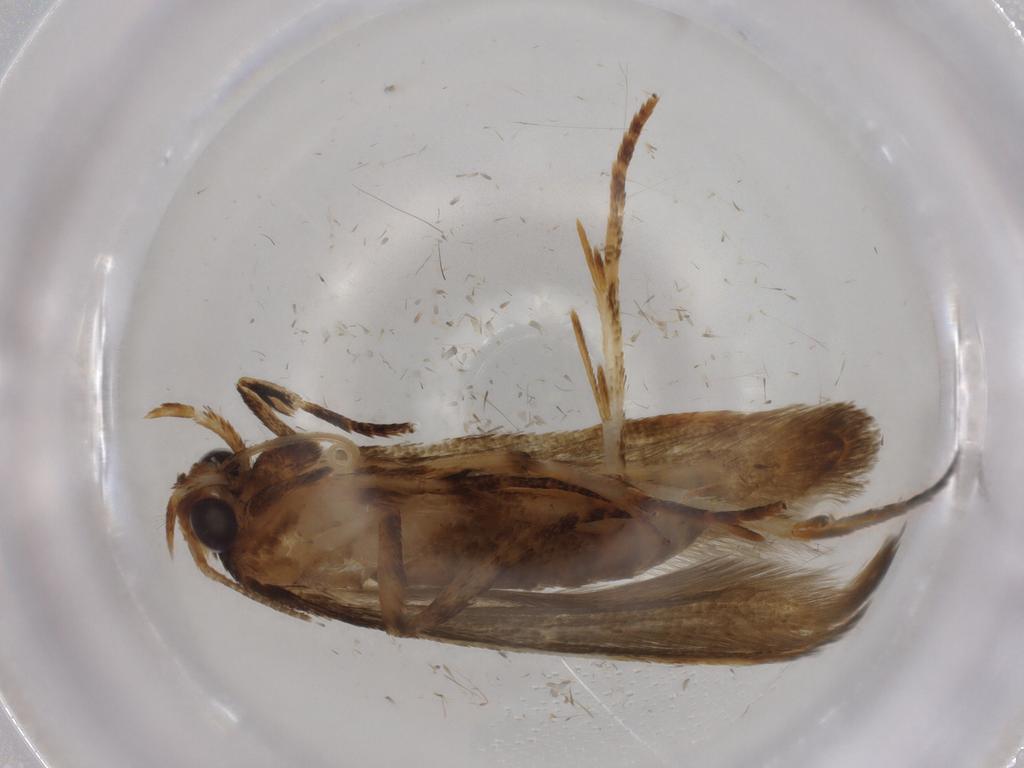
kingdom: Animalia
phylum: Arthropoda
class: Insecta
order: Lepidoptera
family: Blastobasidae
